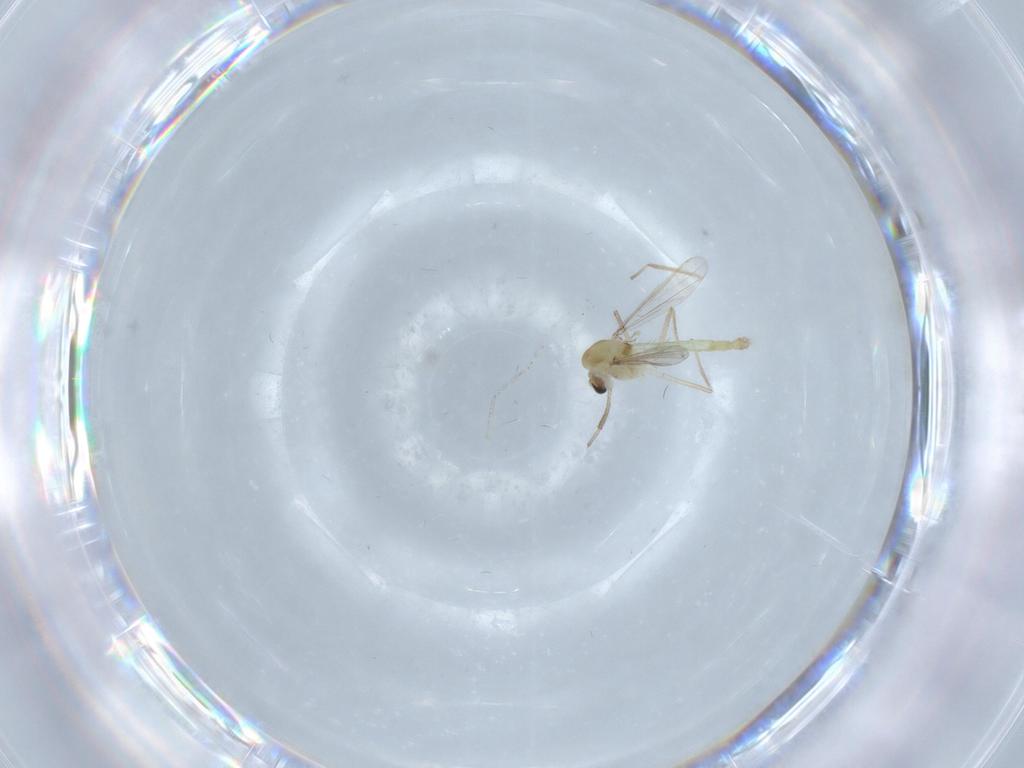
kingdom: Animalia
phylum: Arthropoda
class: Insecta
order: Diptera
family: Chironomidae
